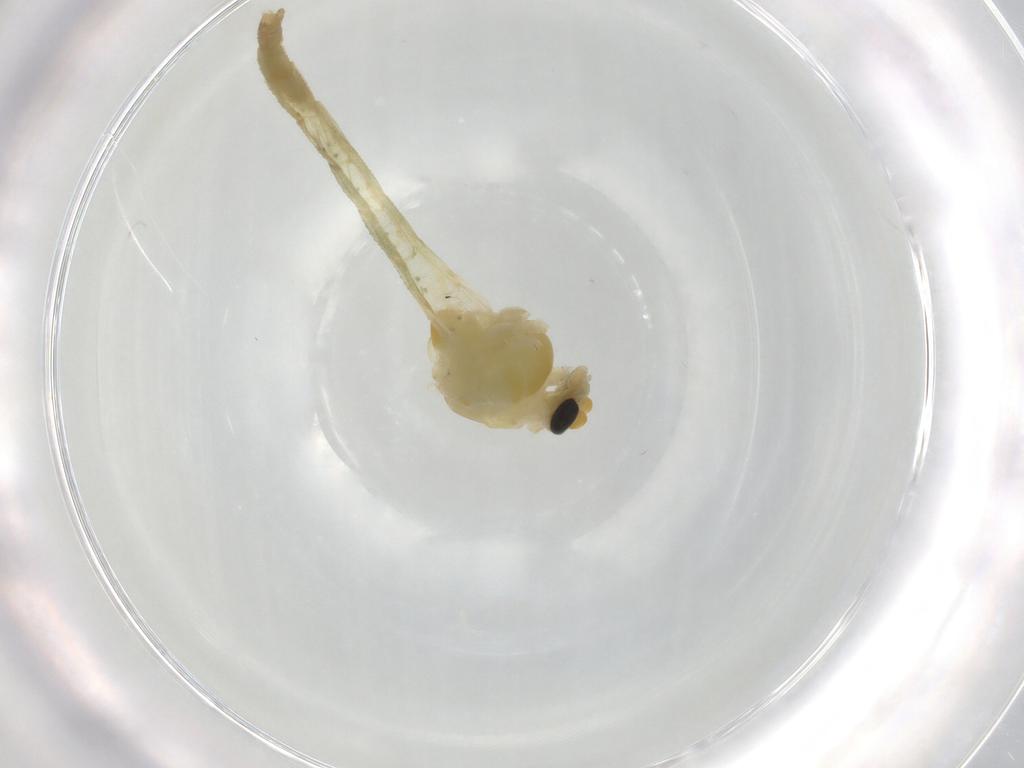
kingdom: Animalia
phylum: Arthropoda
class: Insecta
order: Diptera
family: Cecidomyiidae
